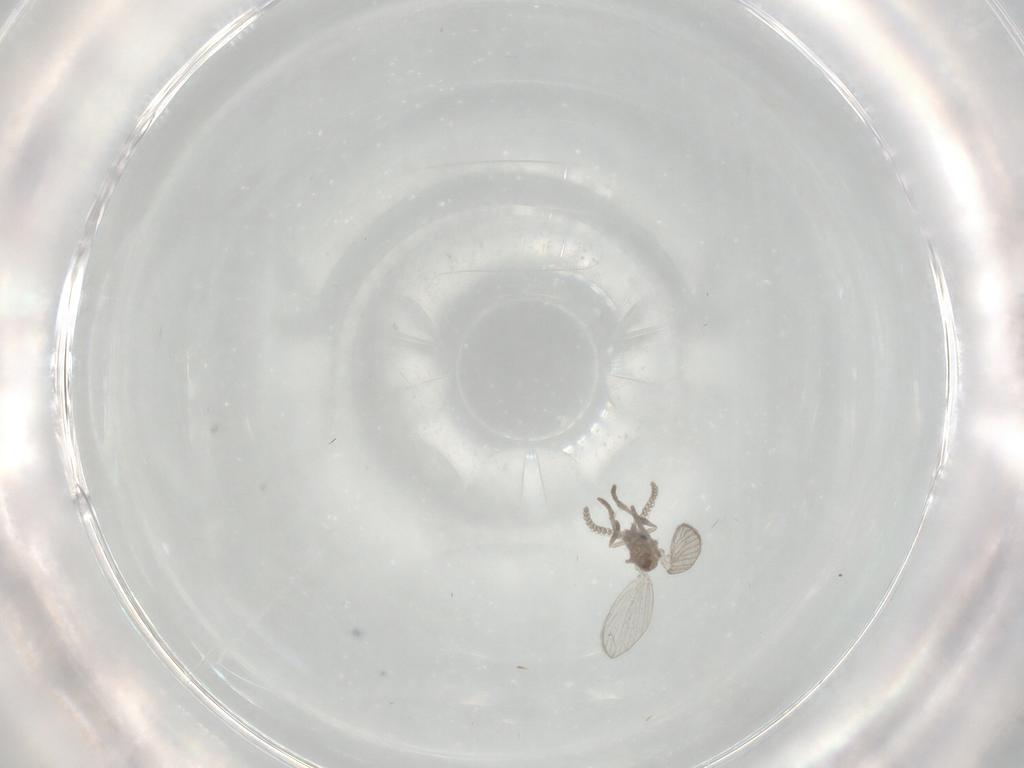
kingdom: Animalia
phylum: Arthropoda
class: Insecta
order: Diptera
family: Psychodidae
